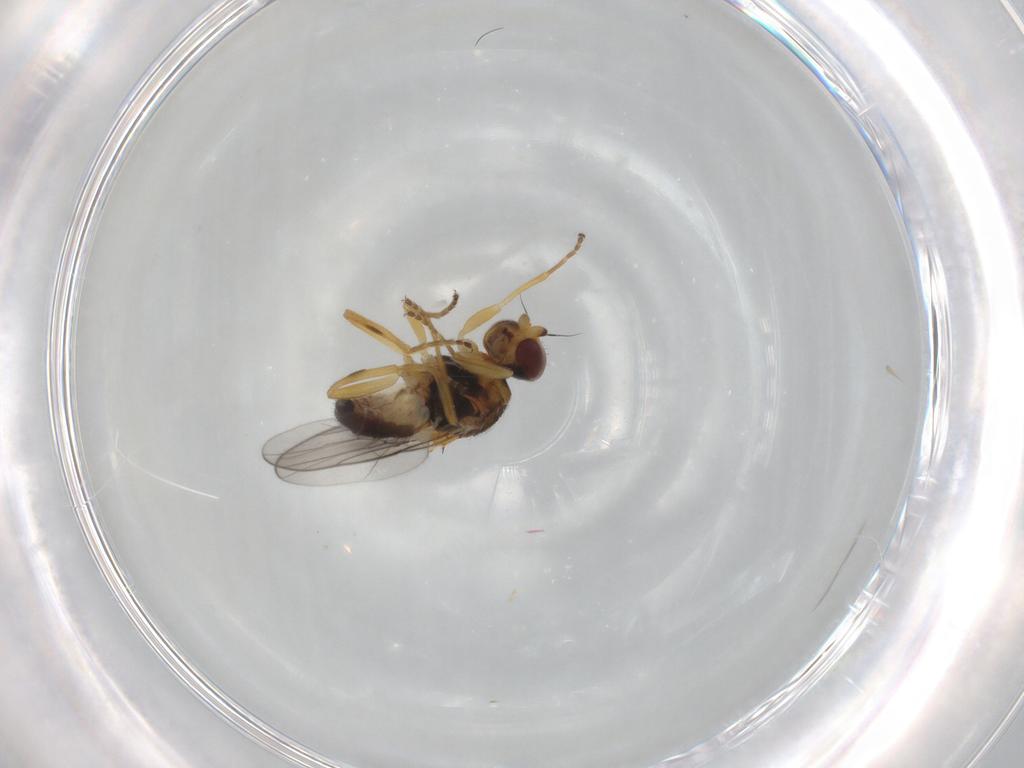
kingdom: Animalia
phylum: Arthropoda
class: Insecta
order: Diptera
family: Chloropidae
